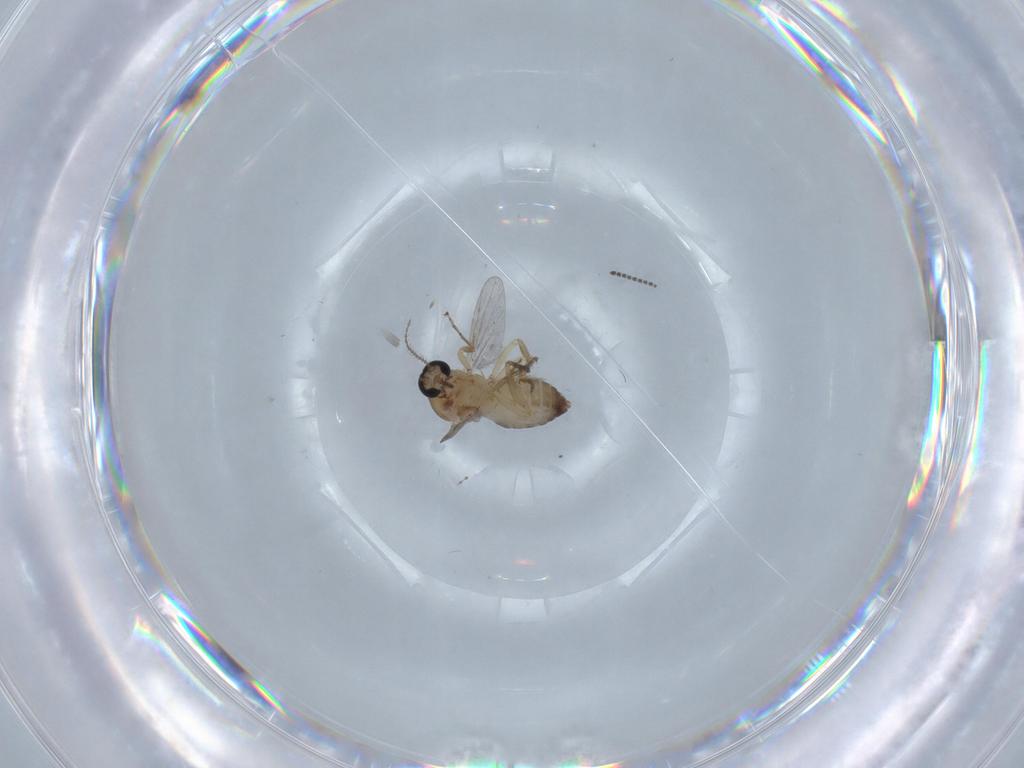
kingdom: Animalia
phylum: Arthropoda
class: Insecta
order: Diptera
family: Ceratopogonidae
